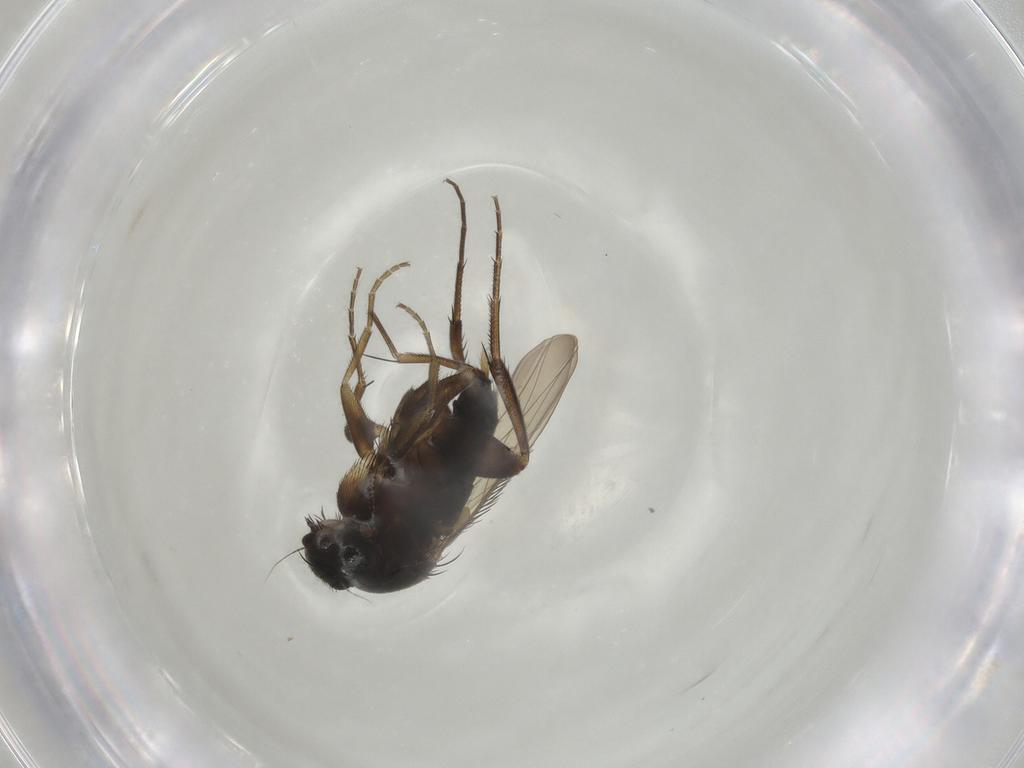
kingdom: Animalia
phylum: Arthropoda
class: Insecta
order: Diptera
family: Phoridae
